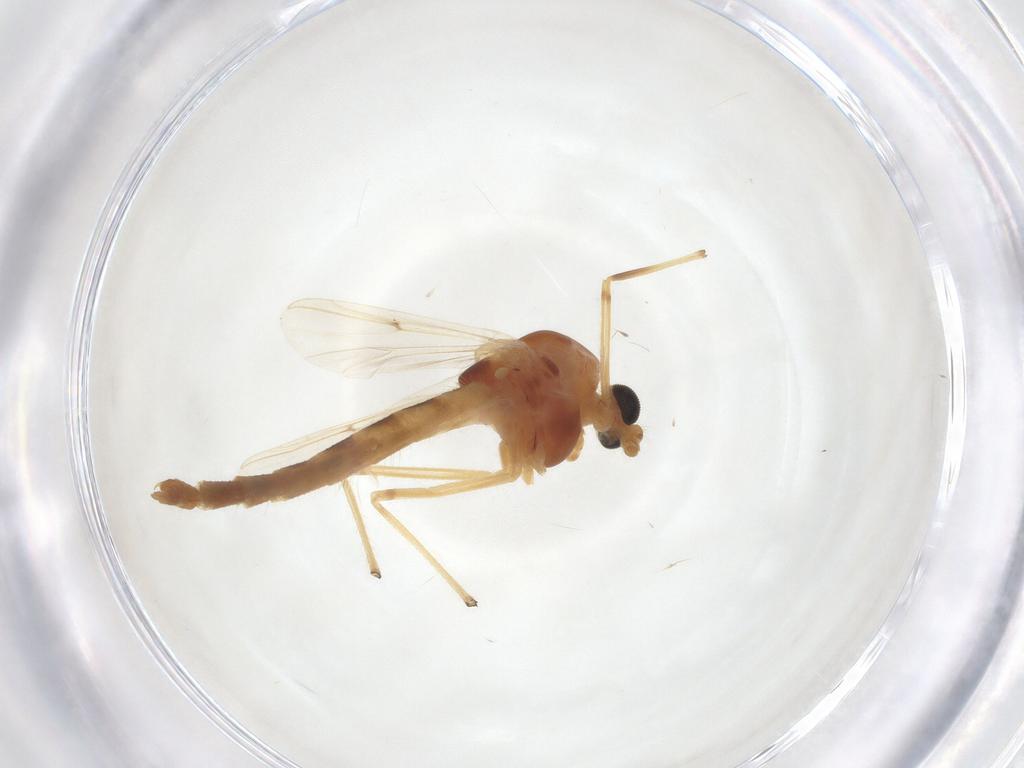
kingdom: Animalia
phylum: Arthropoda
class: Insecta
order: Diptera
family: Chironomidae
